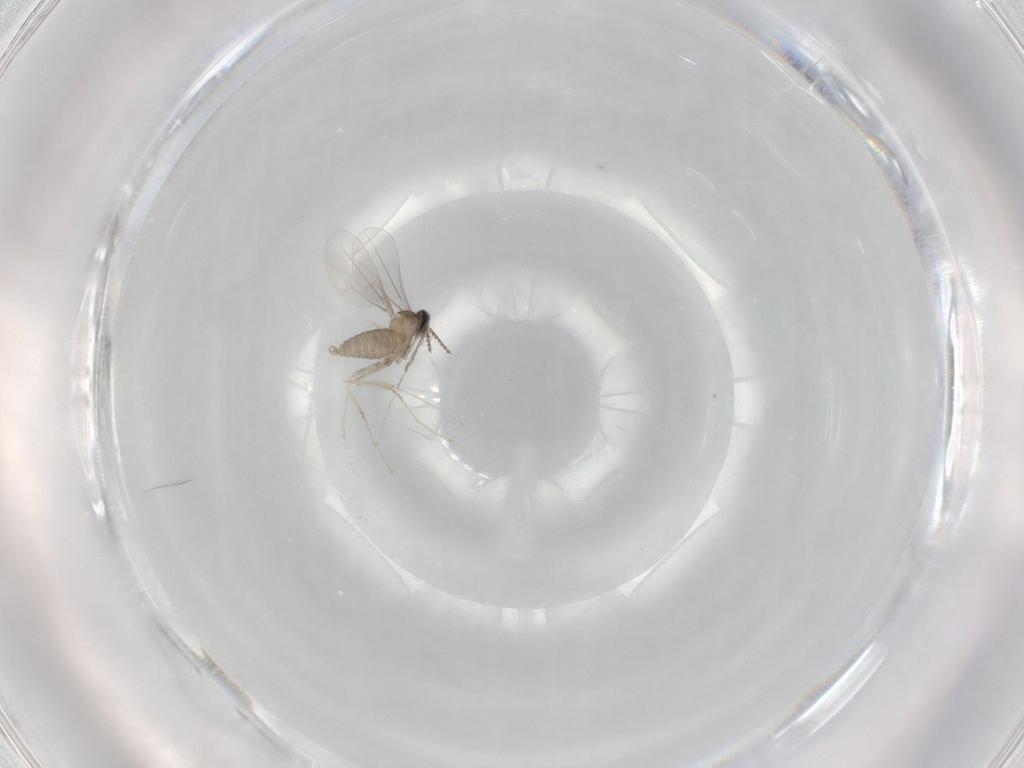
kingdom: Animalia
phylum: Arthropoda
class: Insecta
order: Diptera
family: Cecidomyiidae
